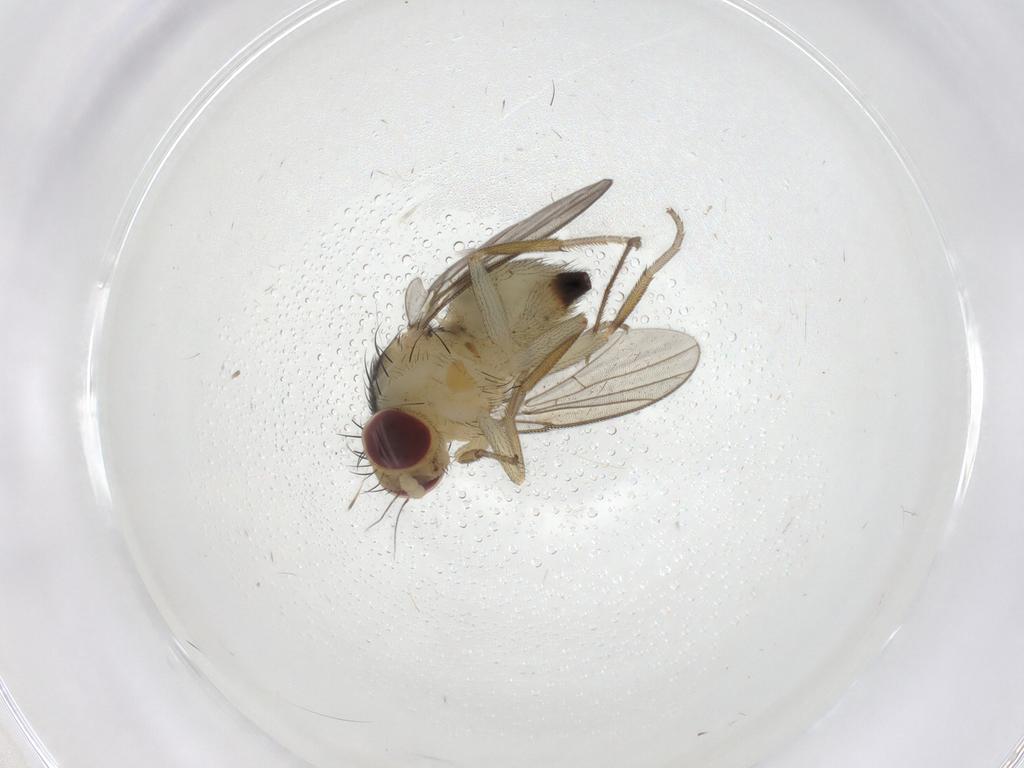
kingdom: Animalia
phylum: Arthropoda
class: Insecta
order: Diptera
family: Agromyzidae
